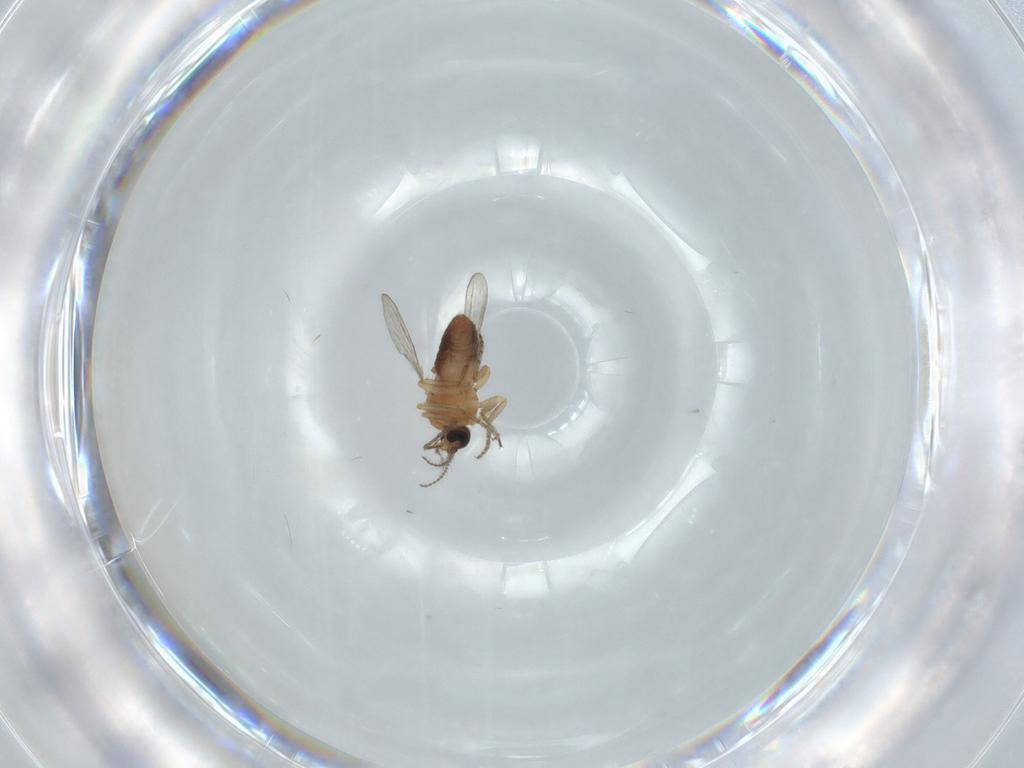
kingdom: Animalia
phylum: Arthropoda
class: Insecta
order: Diptera
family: Ceratopogonidae
